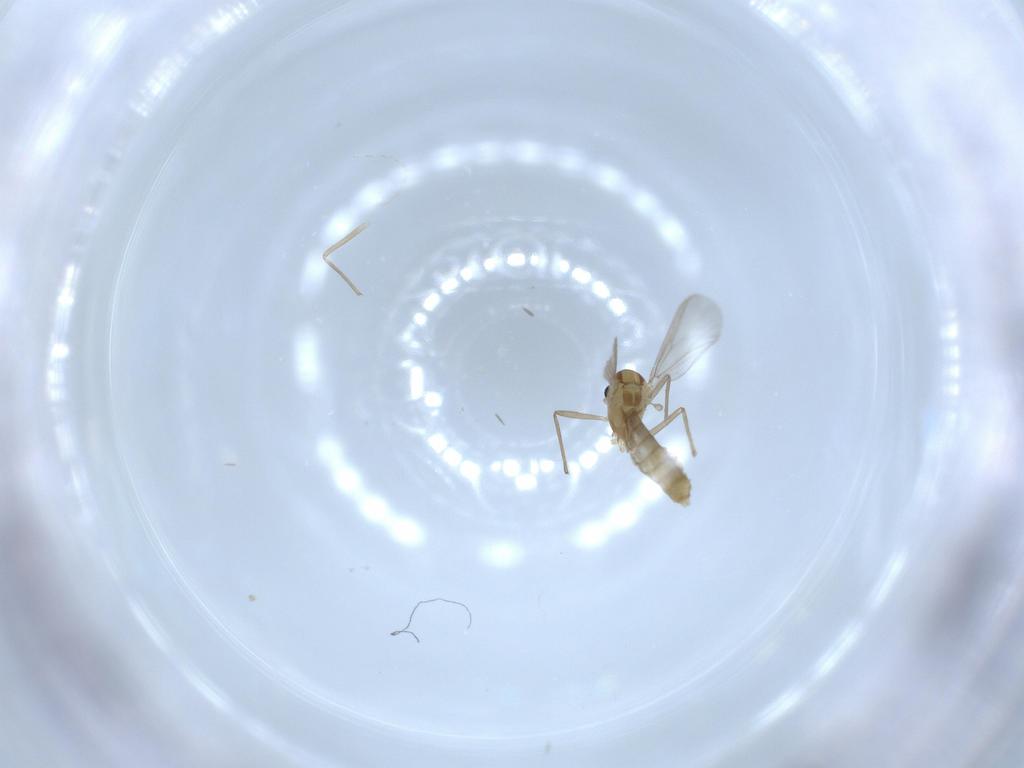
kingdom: Animalia
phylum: Arthropoda
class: Insecta
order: Diptera
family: Chironomidae
